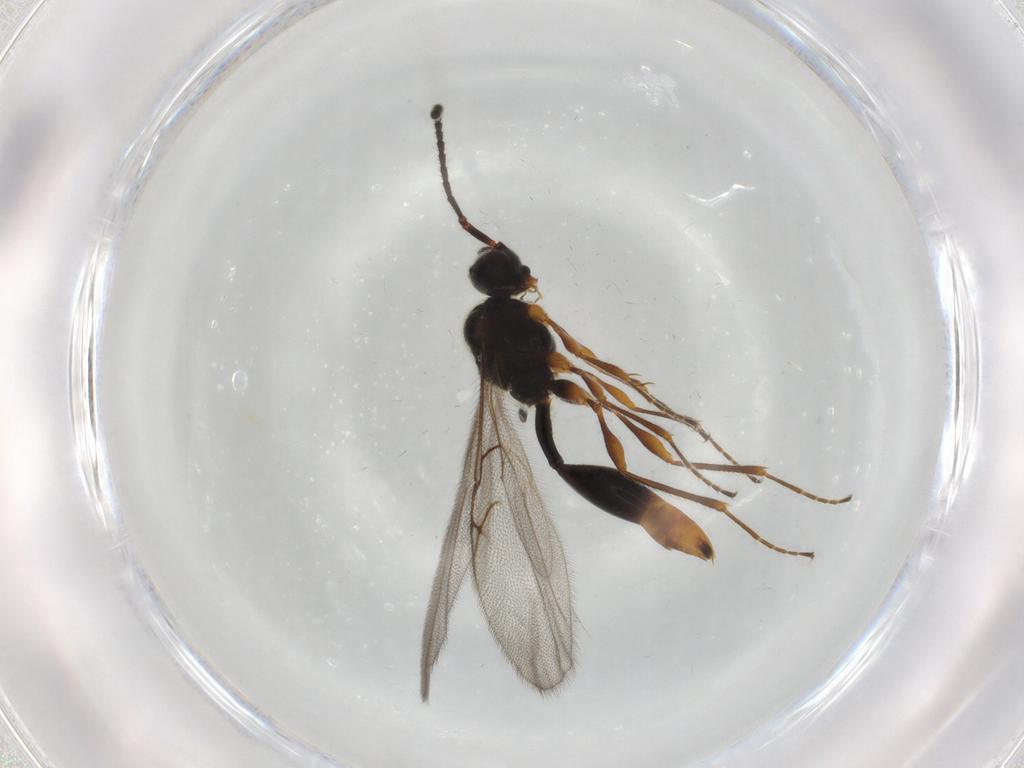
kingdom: Animalia
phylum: Arthropoda
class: Insecta
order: Hymenoptera
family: Diapriidae
